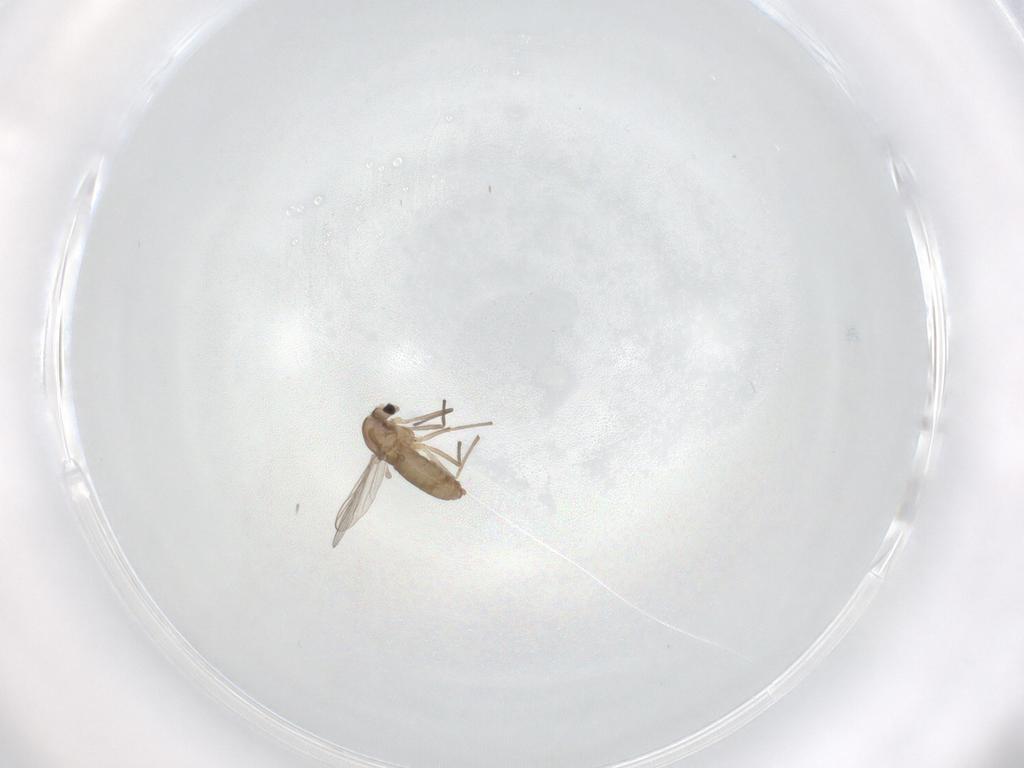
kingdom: Animalia
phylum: Arthropoda
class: Insecta
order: Diptera
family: Chironomidae
